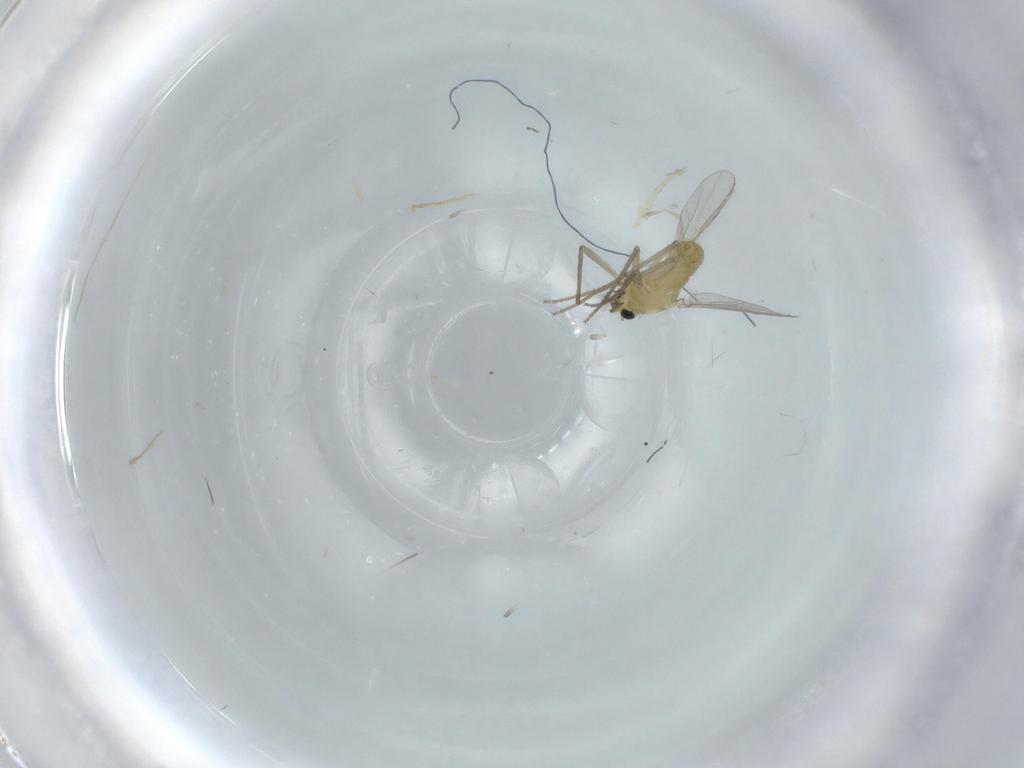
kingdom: Animalia
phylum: Arthropoda
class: Insecta
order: Diptera
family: Chironomidae
